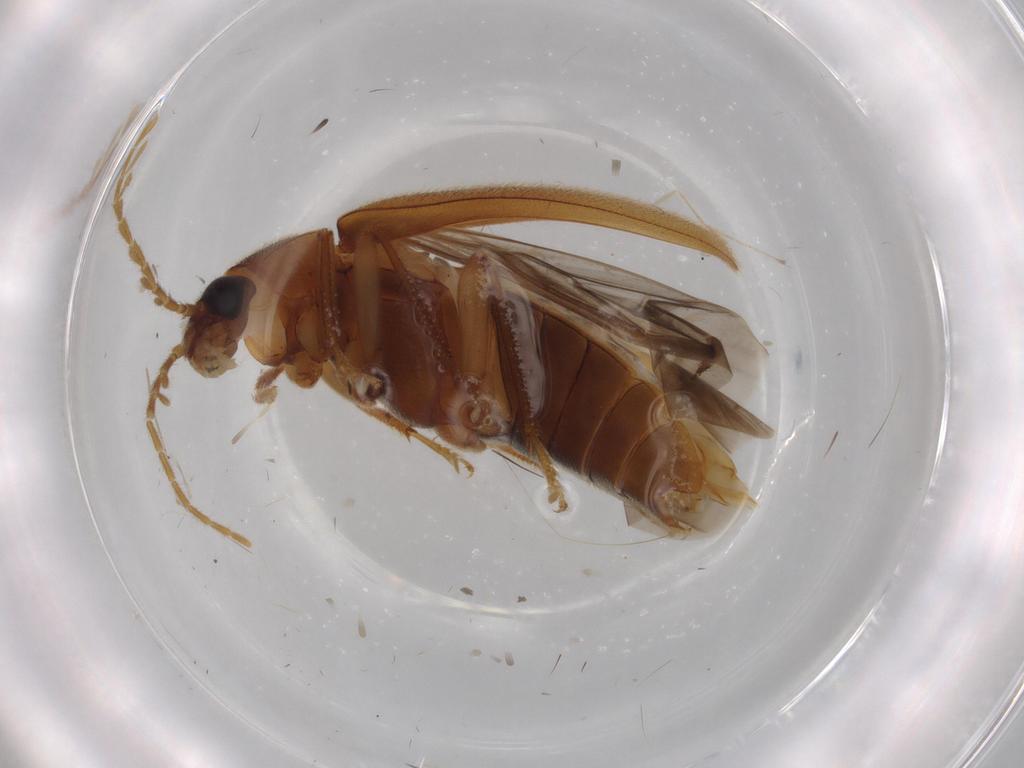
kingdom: Animalia
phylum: Arthropoda
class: Insecta
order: Coleoptera
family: Ptilodactylidae
